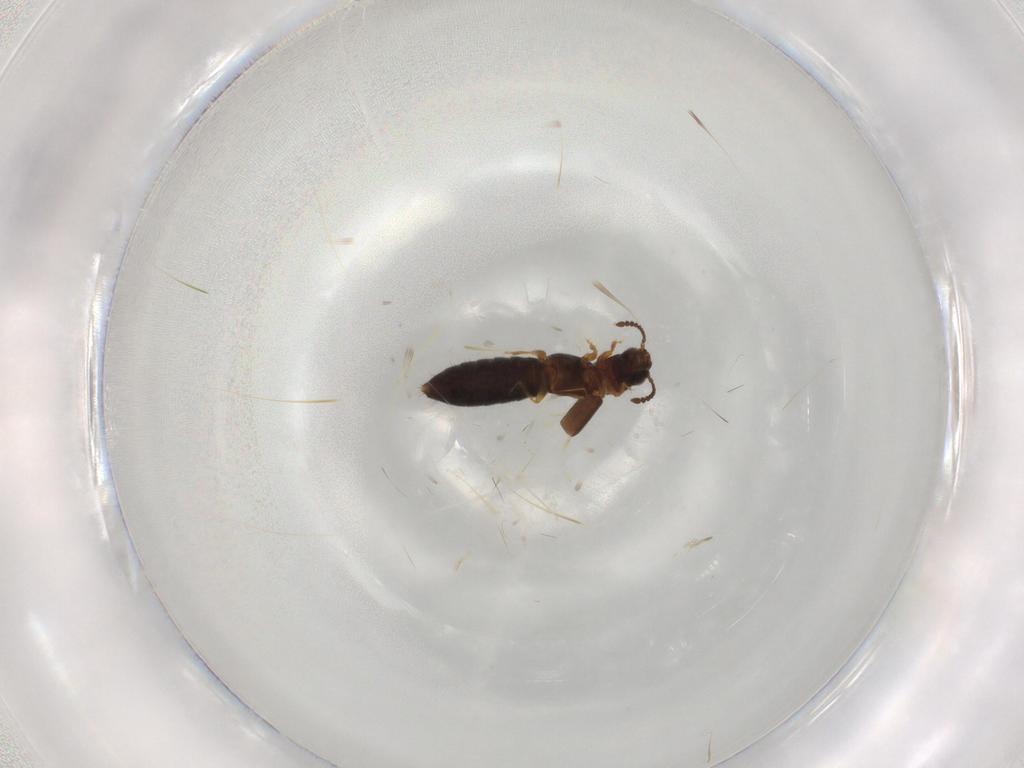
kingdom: Animalia
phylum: Arthropoda
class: Insecta
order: Coleoptera
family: Staphylinidae
